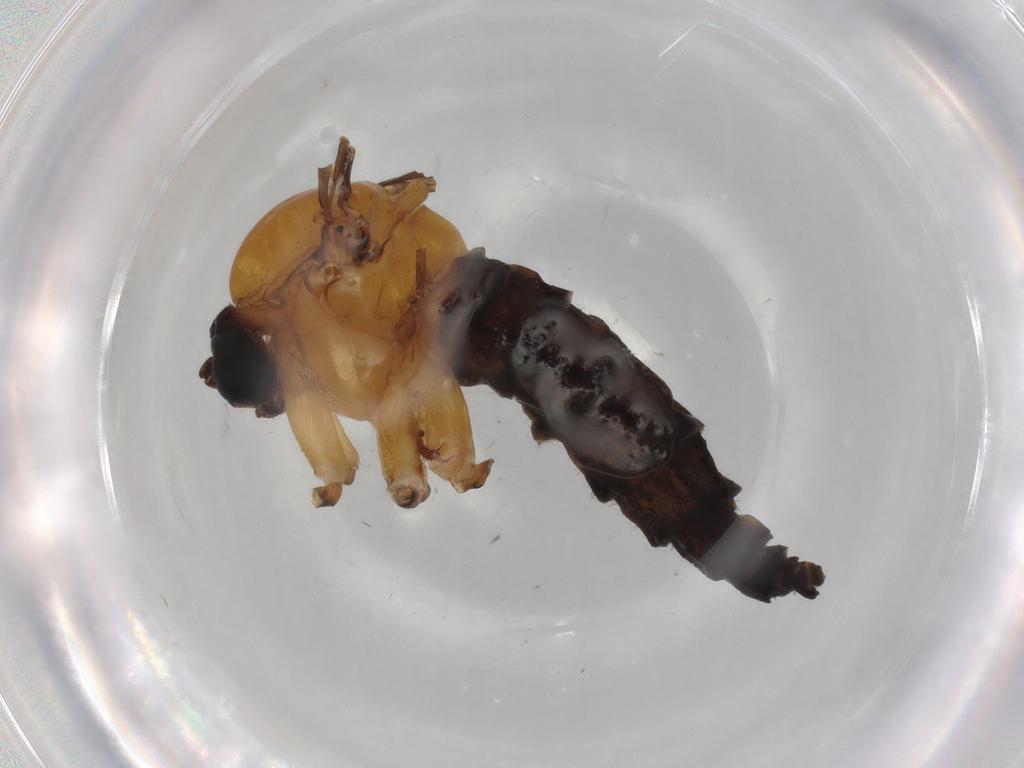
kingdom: Animalia
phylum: Arthropoda
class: Insecta
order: Diptera
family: Sciaridae
